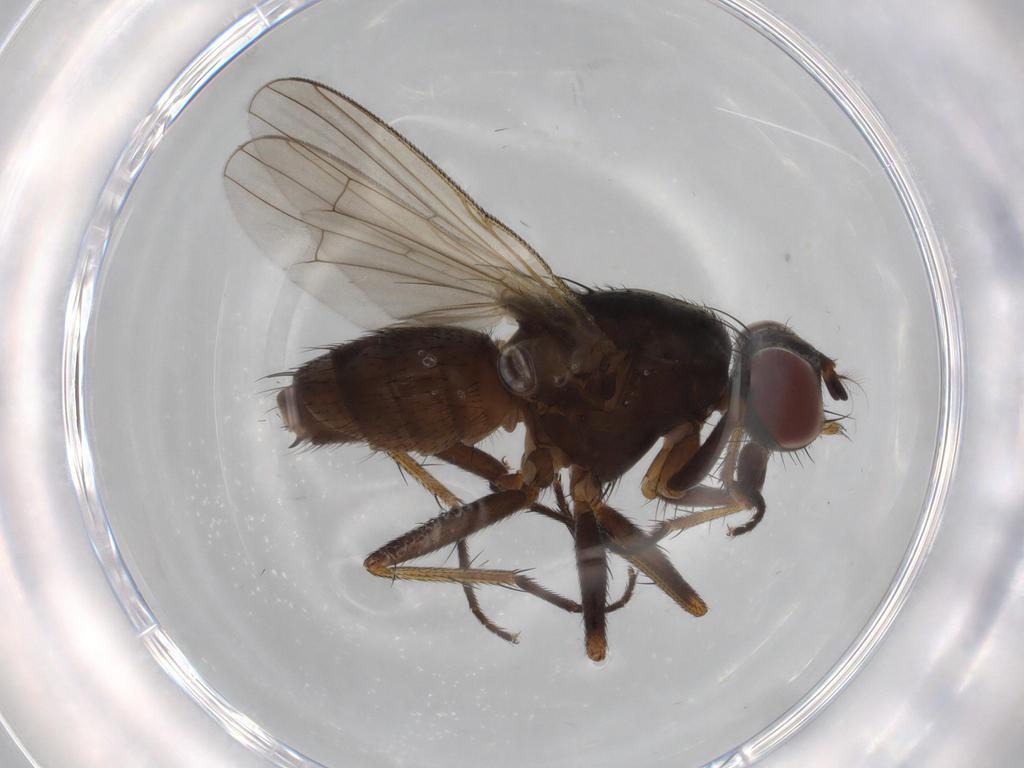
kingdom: Animalia
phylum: Arthropoda
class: Insecta
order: Diptera
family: Muscidae
